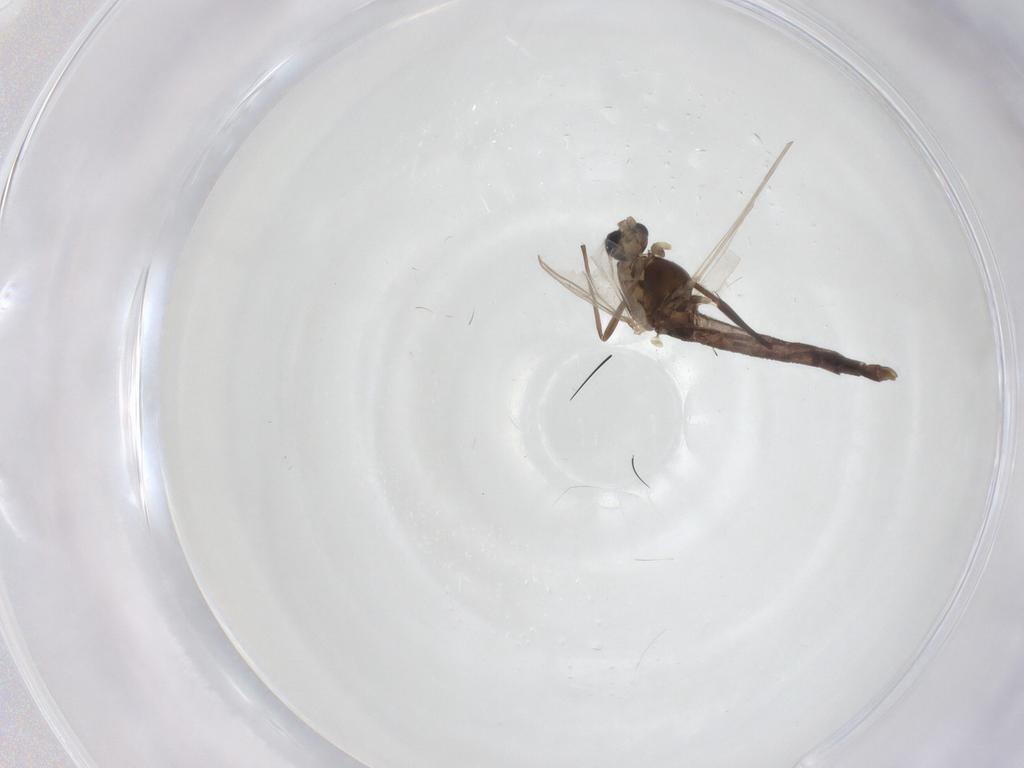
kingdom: Animalia
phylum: Arthropoda
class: Insecta
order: Diptera
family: Chironomidae
